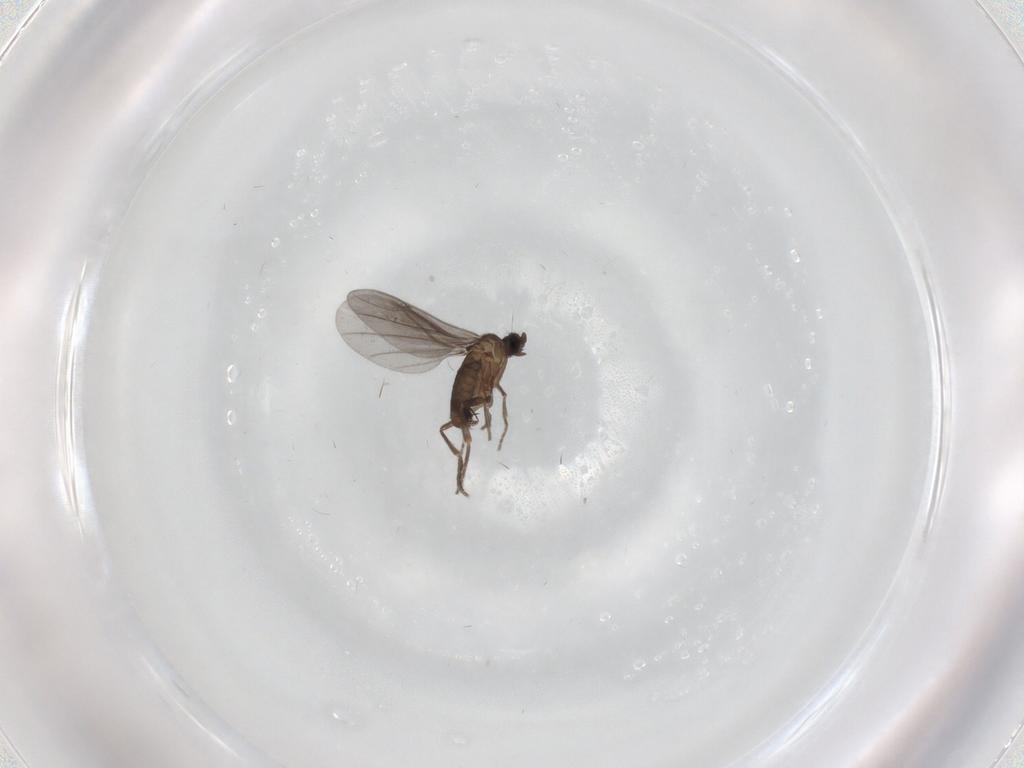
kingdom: Animalia
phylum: Arthropoda
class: Insecta
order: Diptera
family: Phoridae
